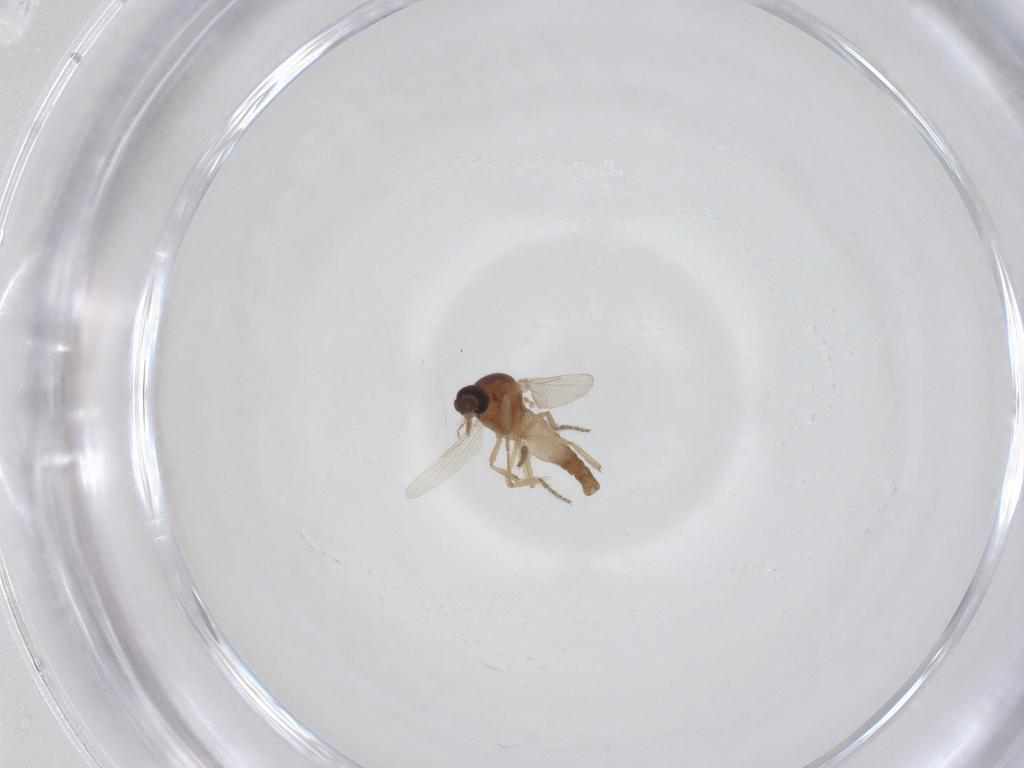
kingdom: Animalia
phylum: Arthropoda
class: Insecta
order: Diptera
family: Ceratopogonidae
